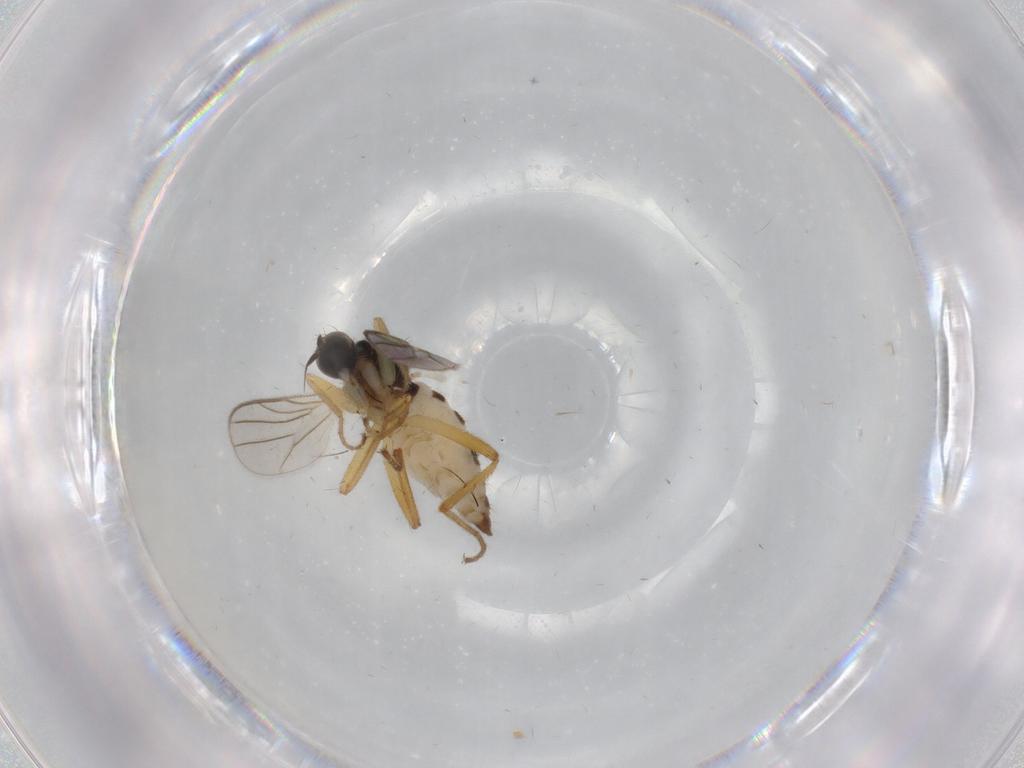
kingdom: Animalia
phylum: Arthropoda
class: Insecta
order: Diptera
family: Hybotidae
